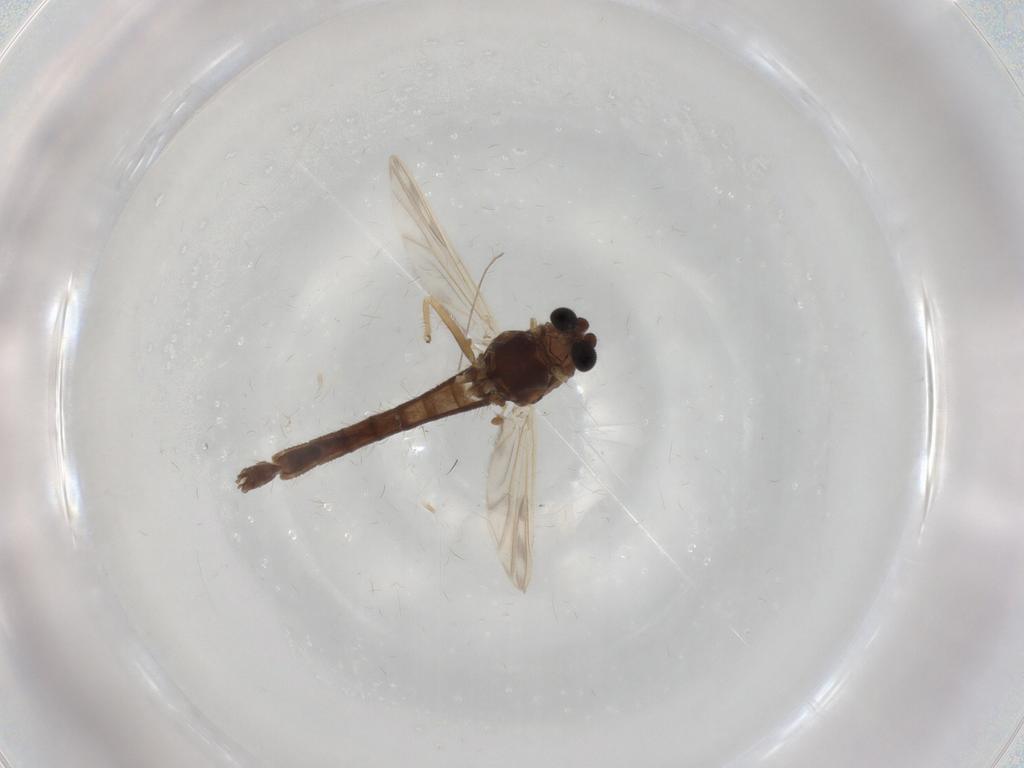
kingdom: Animalia
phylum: Arthropoda
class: Insecta
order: Diptera
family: Chironomidae
